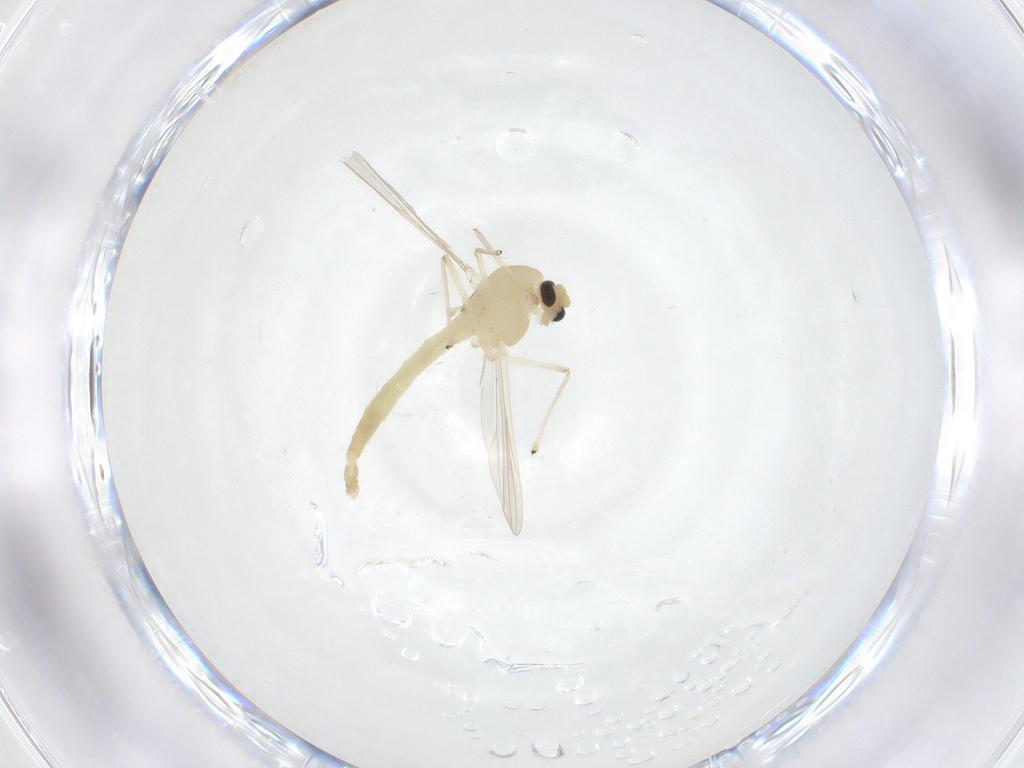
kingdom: Animalia
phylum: Arthropoda
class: Insecta
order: Diptera
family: Chironomidae
